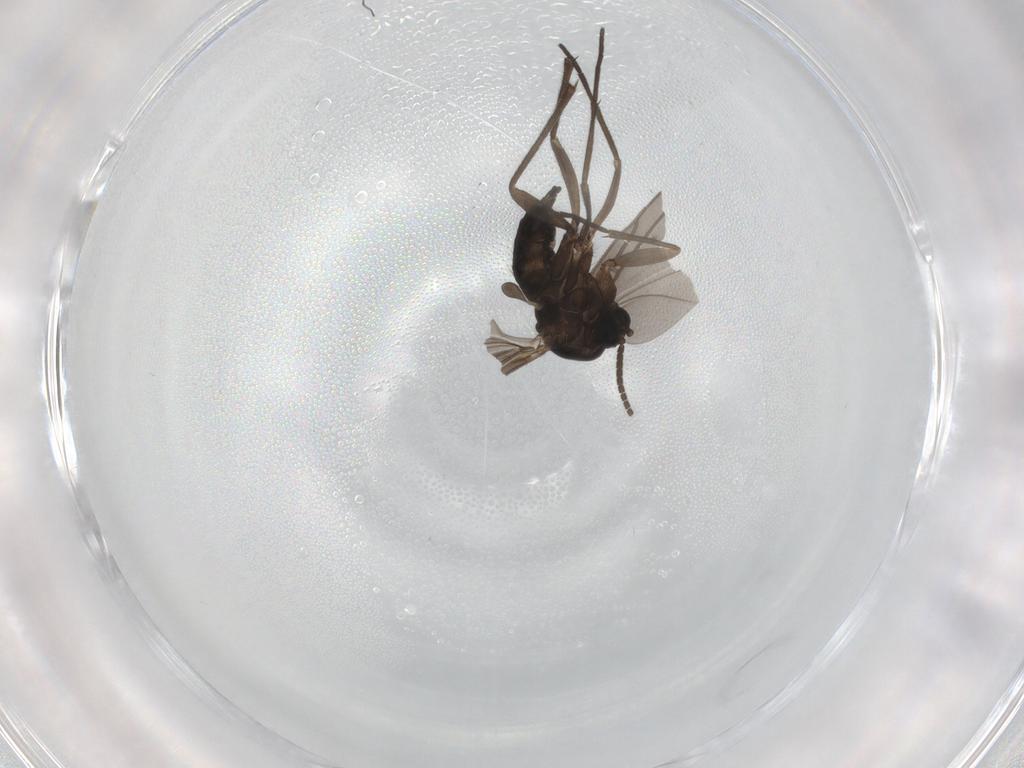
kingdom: Animalia
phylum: Arthropoda
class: Insecta
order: Diptera
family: Sciaridae
